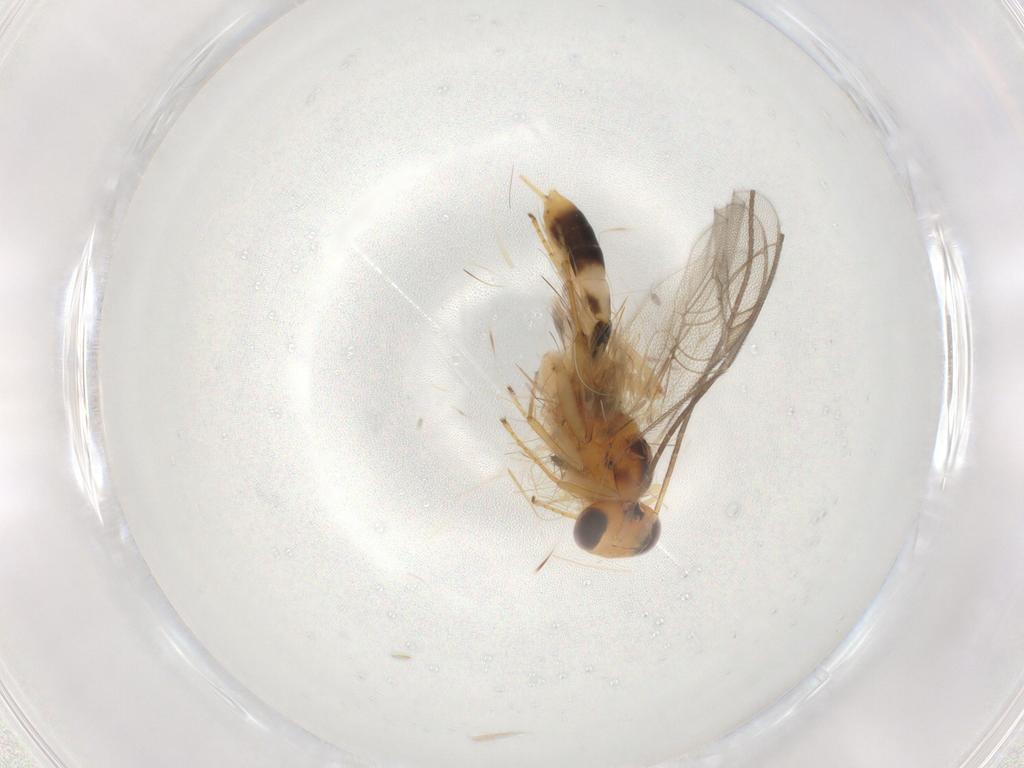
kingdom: Animalia
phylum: Arthropoda
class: Insecta
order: Hymenoptera
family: Ichneumonidae
